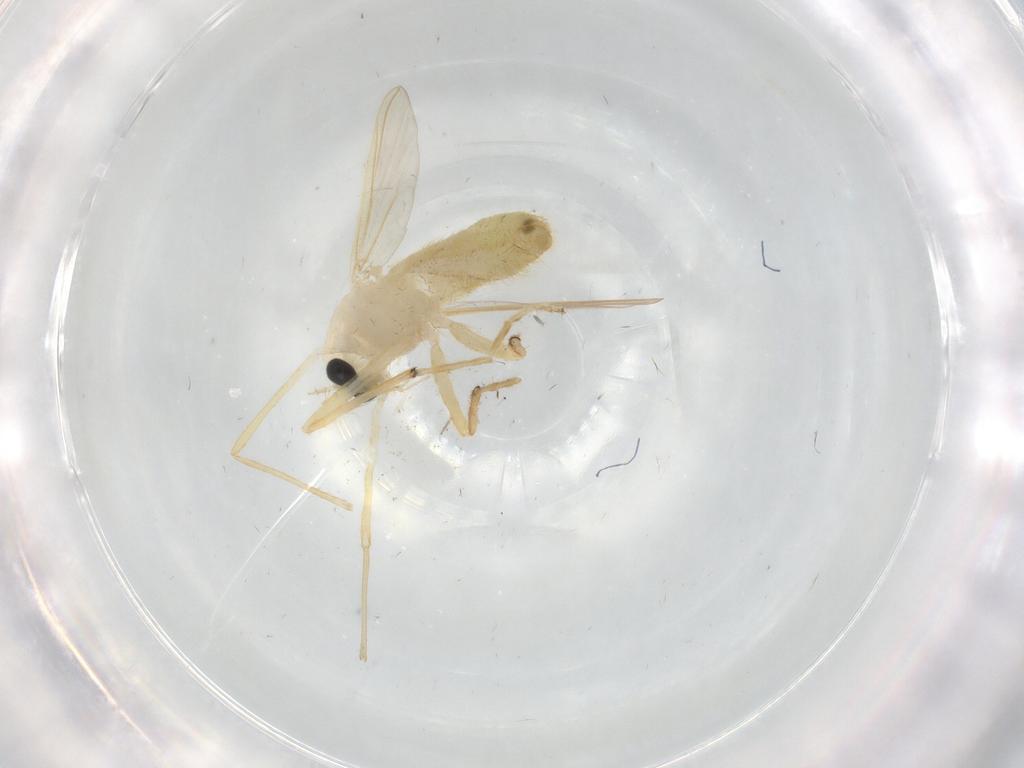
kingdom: Animalia
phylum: Arthropoda
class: Insecta
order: Diptera
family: Chironomidae
